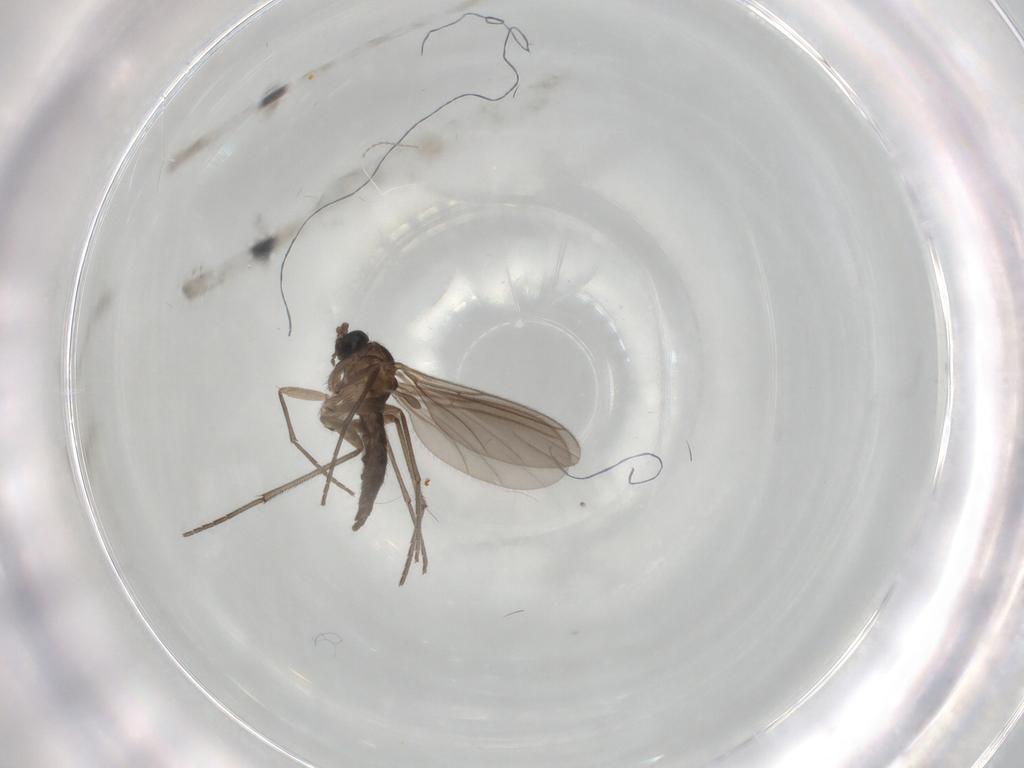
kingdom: Animalia
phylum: Arthropoda
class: Insecta
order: Diptera
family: Sciaridae
